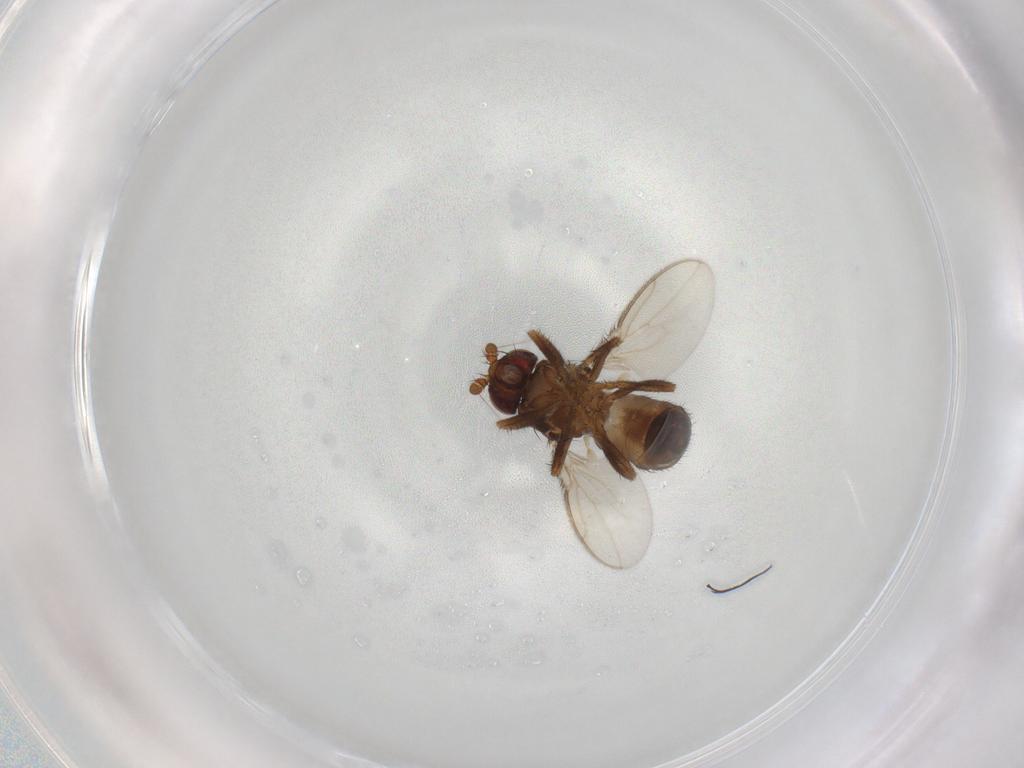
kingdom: Animalia
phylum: Arthropoda
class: Insecta
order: Diptera
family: Sphaeroceridae
